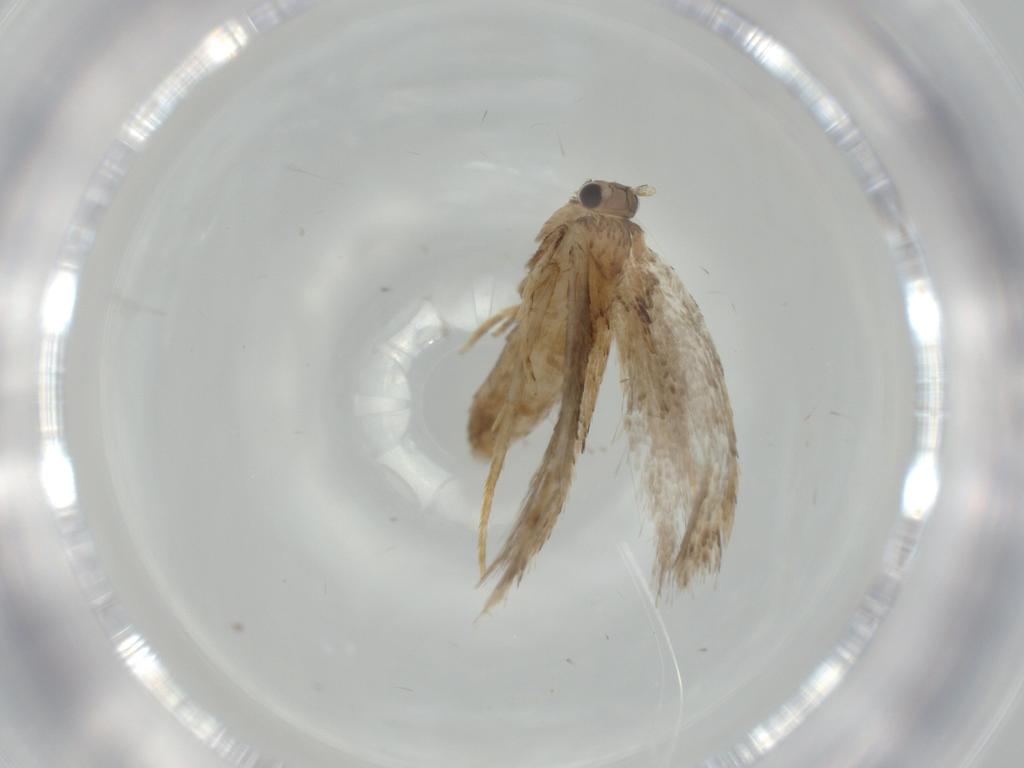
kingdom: Animalia
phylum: Arthropoda
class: Insecta
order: Lepidoptera
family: Tineidae
